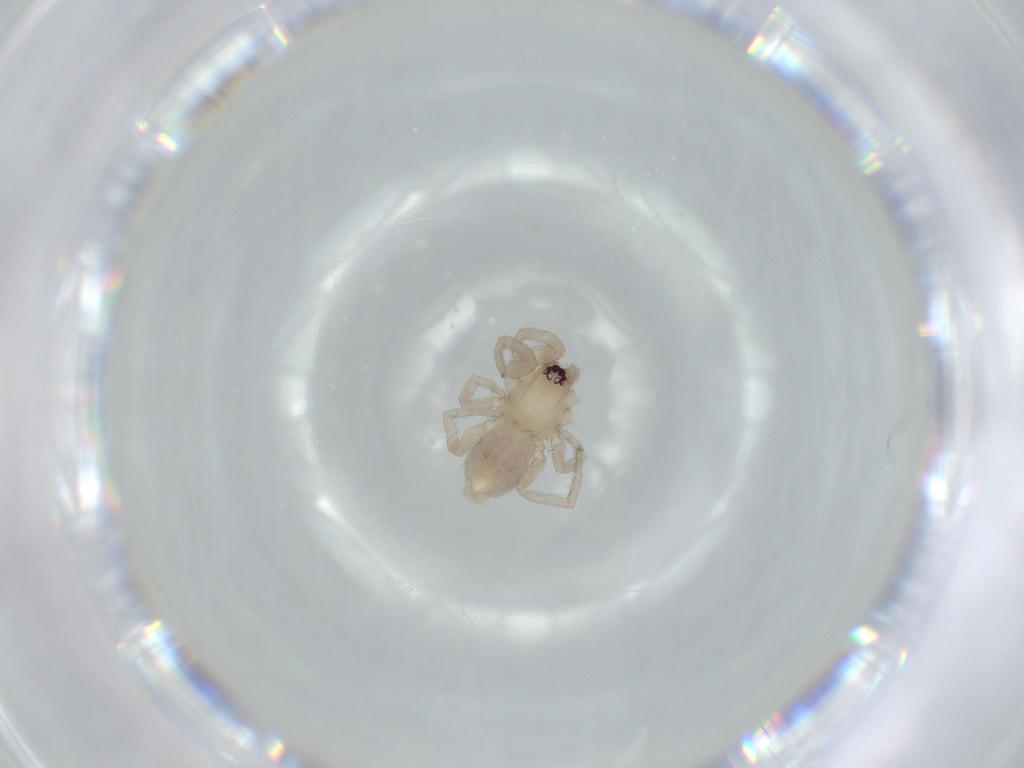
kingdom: Animalia
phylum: Arthropoda
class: Arachnida
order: Araneae
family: Gnaphosidae
